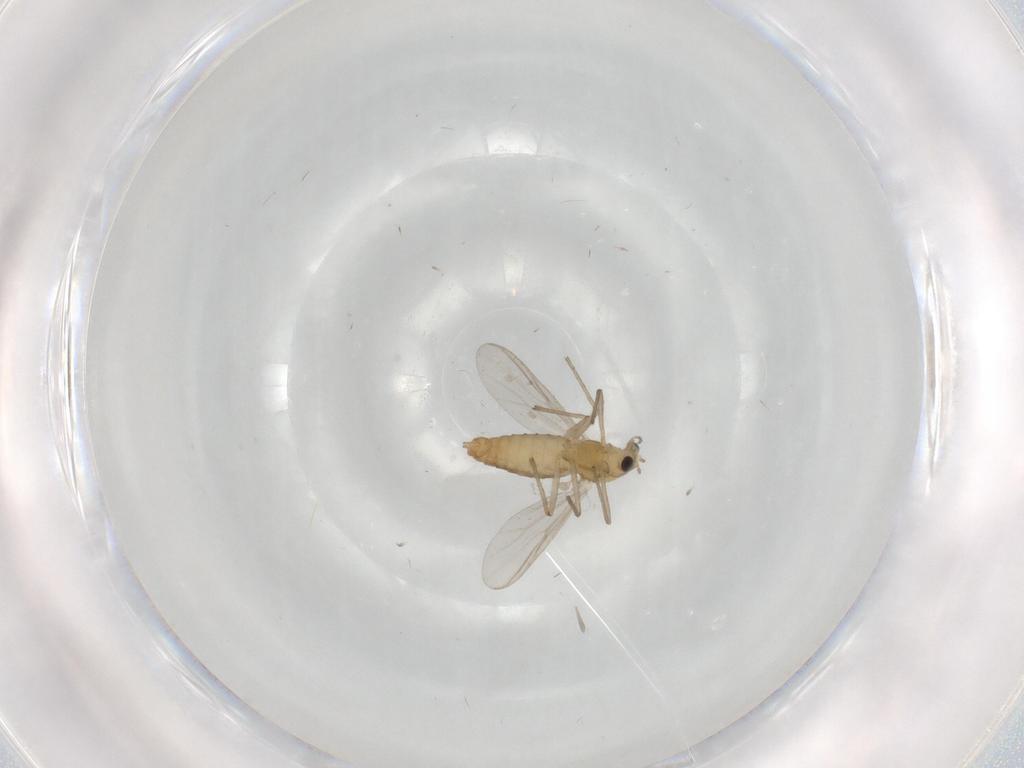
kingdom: Animalia
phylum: Arthropoda
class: Insecta
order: Diptera
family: Chironomidae
